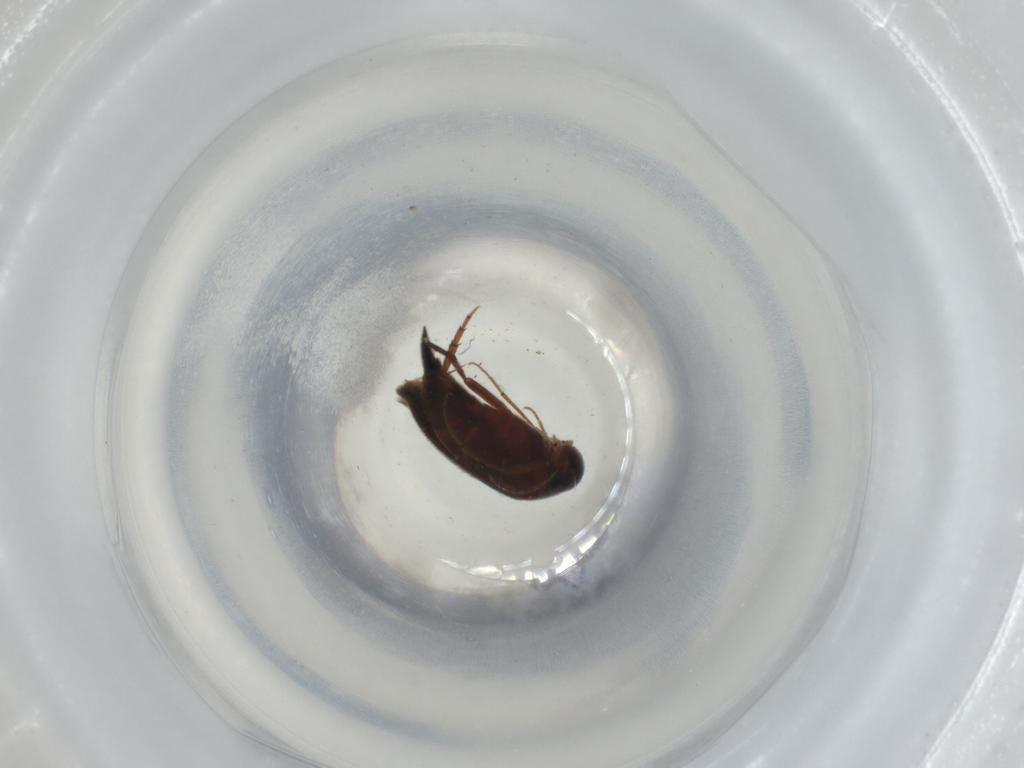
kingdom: Animalia
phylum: Arthropoda
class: Insecta
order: Coleoptera
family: Mordellidae
